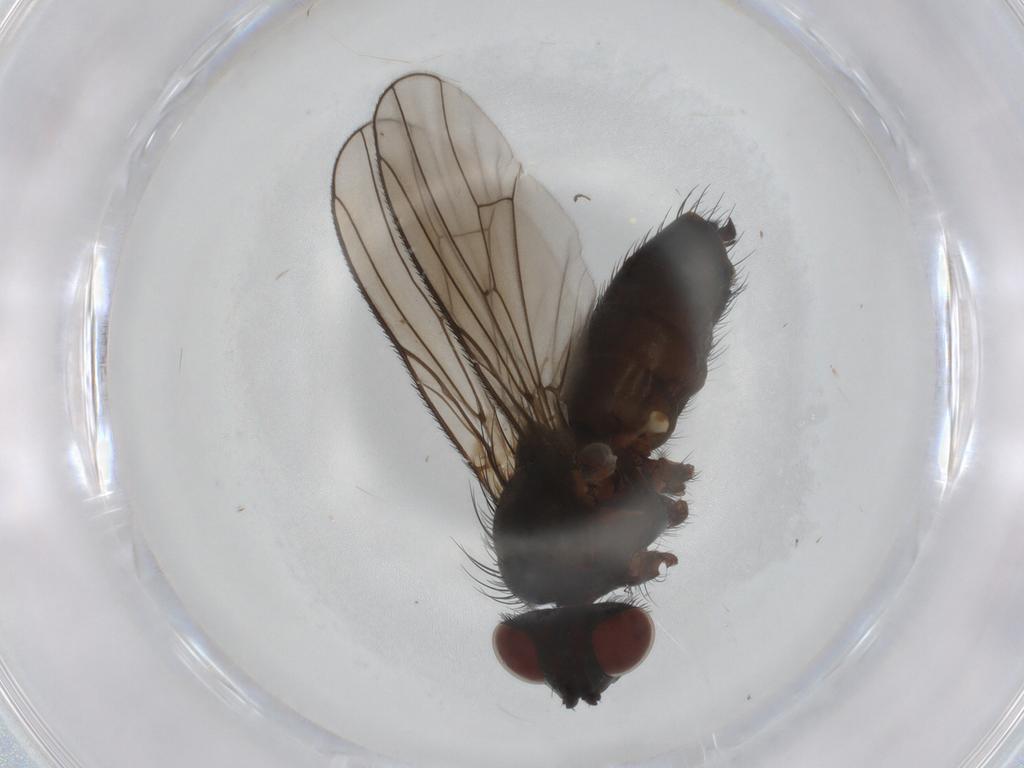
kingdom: Animalia
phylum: Arthropoda
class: Insecta
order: Diptera
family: Anthomyiidae
